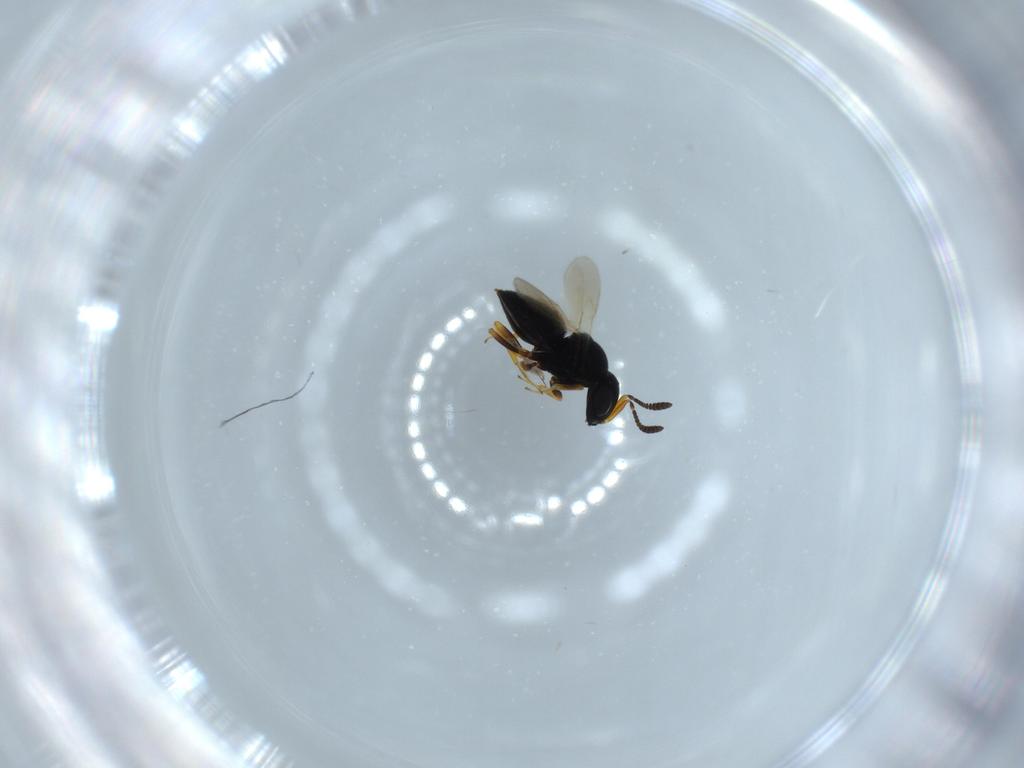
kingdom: Animalia
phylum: Arthropoda
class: Insecta
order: Hymenoptera
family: Scelionidae
